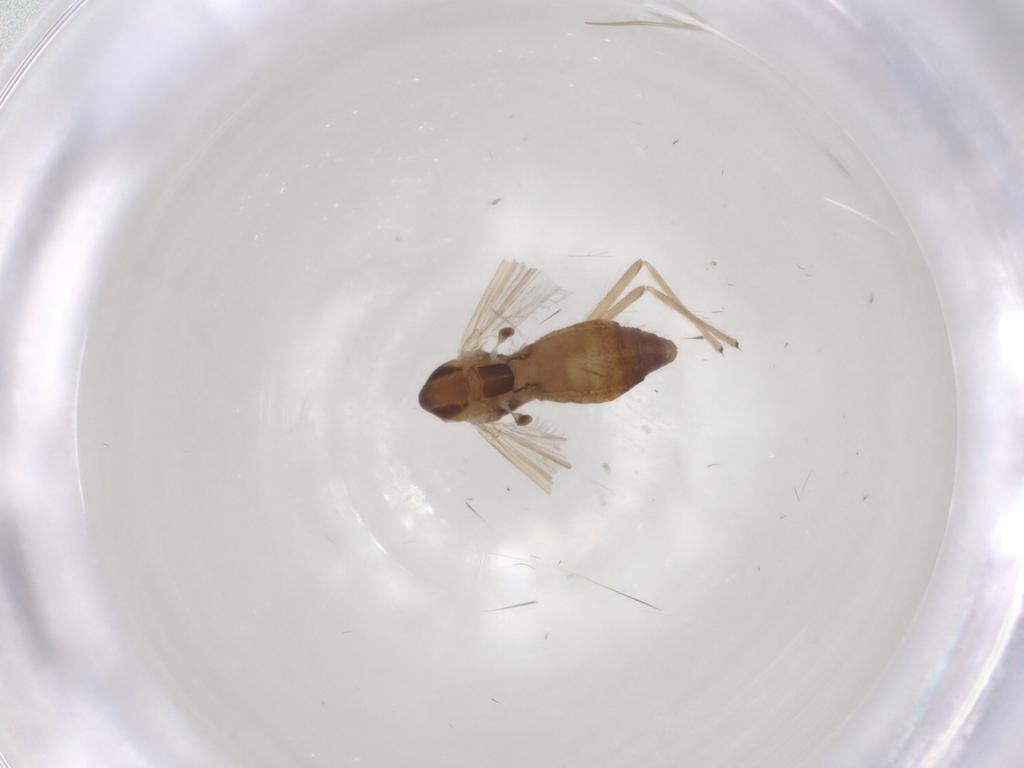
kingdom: Animalia
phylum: Arthropoda
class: Insecta
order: Diptera
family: Chironomidae
